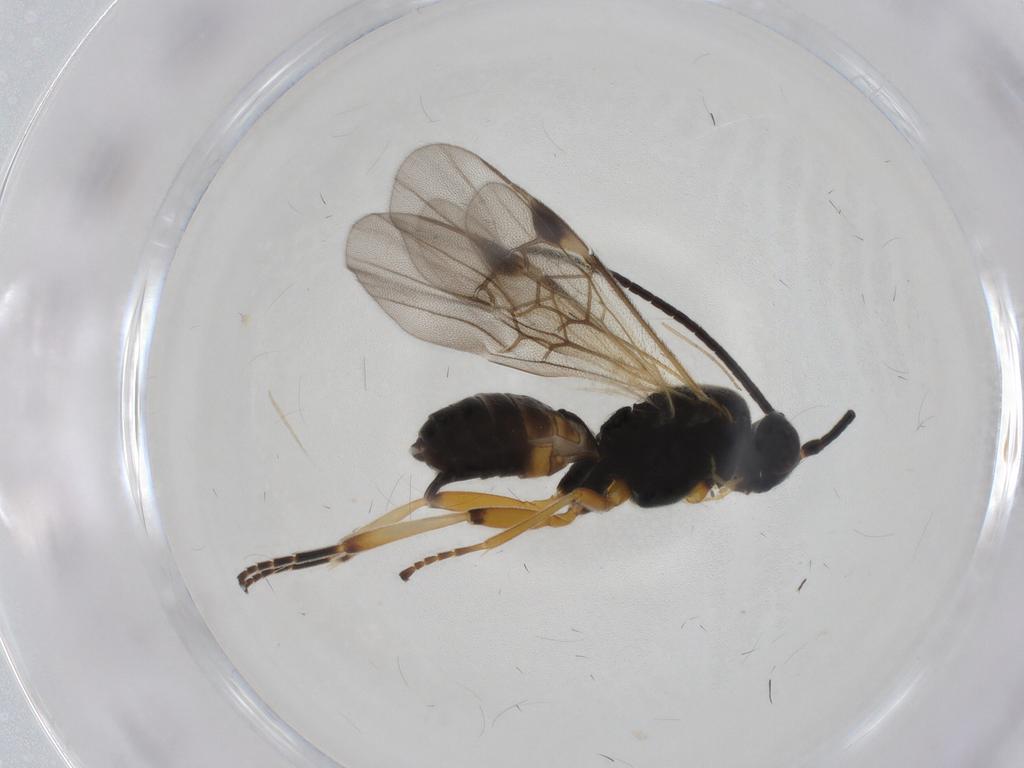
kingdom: Animalia
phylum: Arthropoda
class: Insecta
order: Hymenoptera
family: Braconidae
